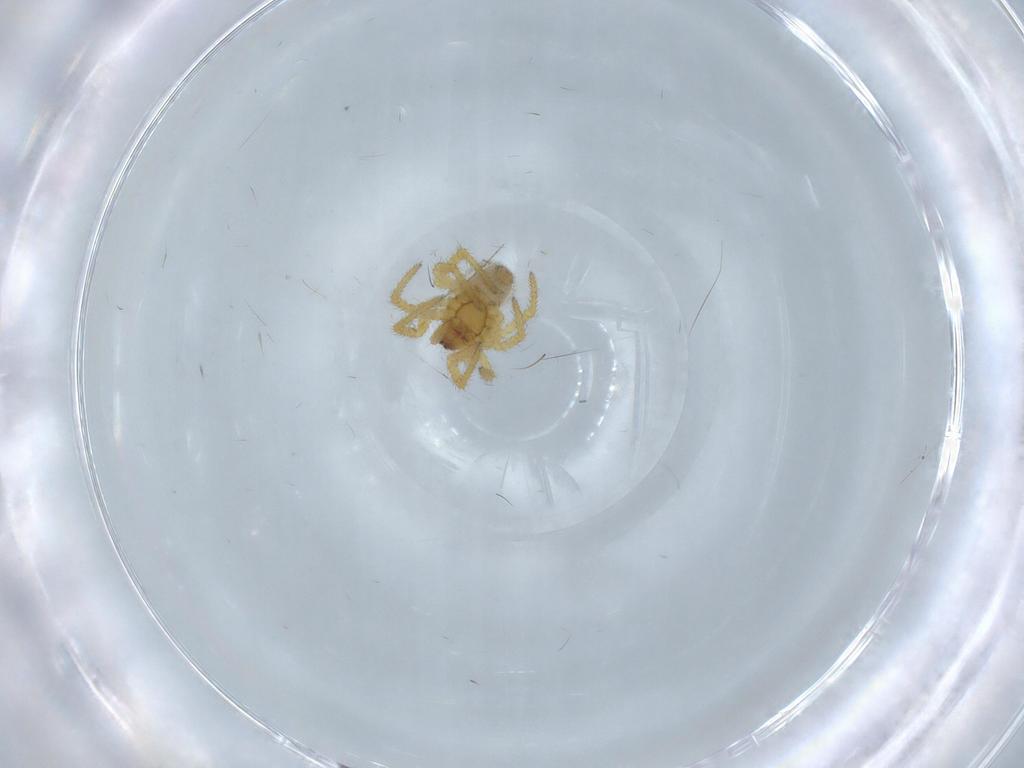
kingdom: Animalia
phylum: Arthropoda
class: Arachnida
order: Araneae
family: Theridiidae
